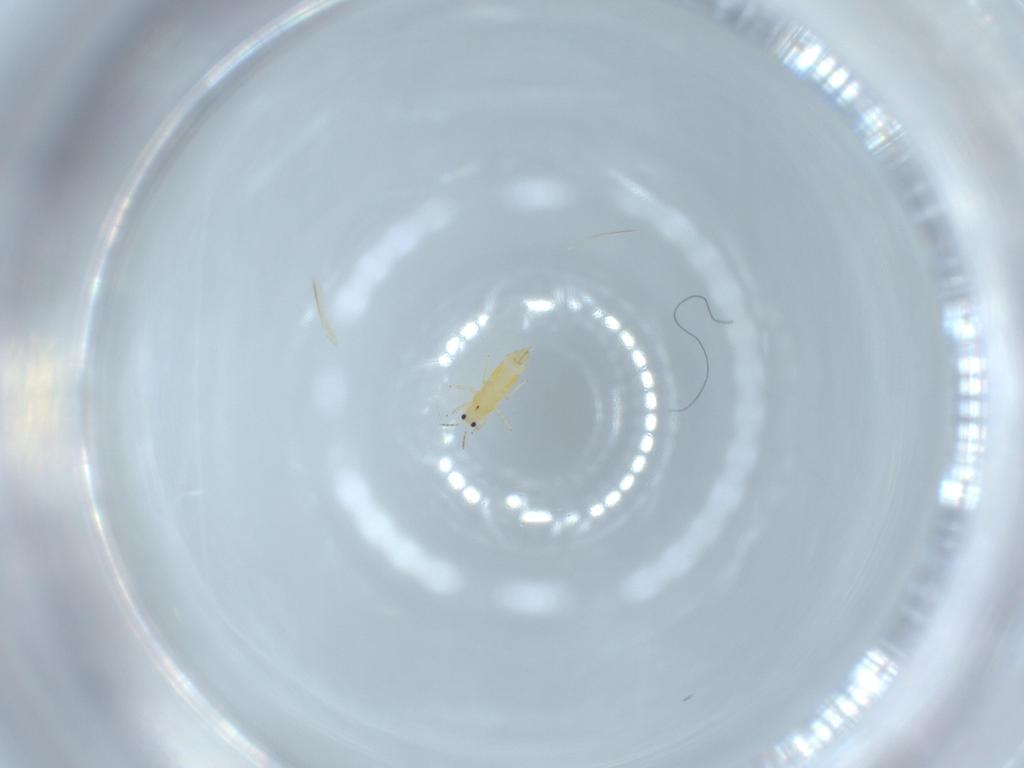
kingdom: Animalia
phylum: Arthropoda
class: Insecta
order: Thysanoptera
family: Thripidae
